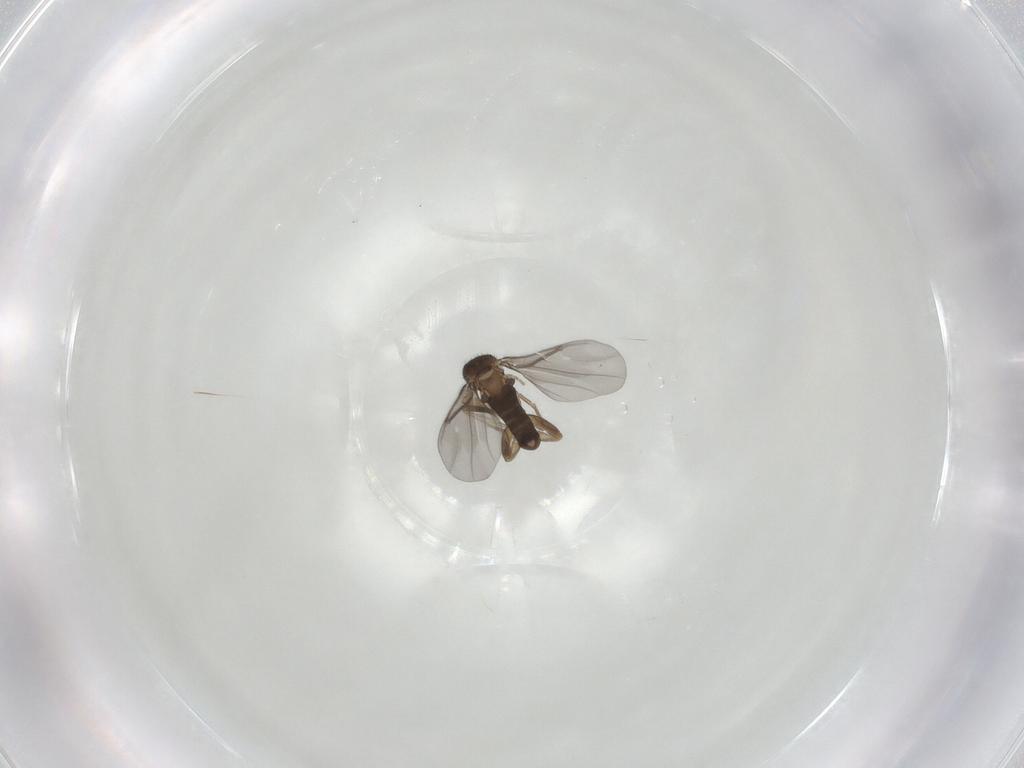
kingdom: Animalia
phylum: Arthropoda
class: Insecta
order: Diptera
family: Phoridae
